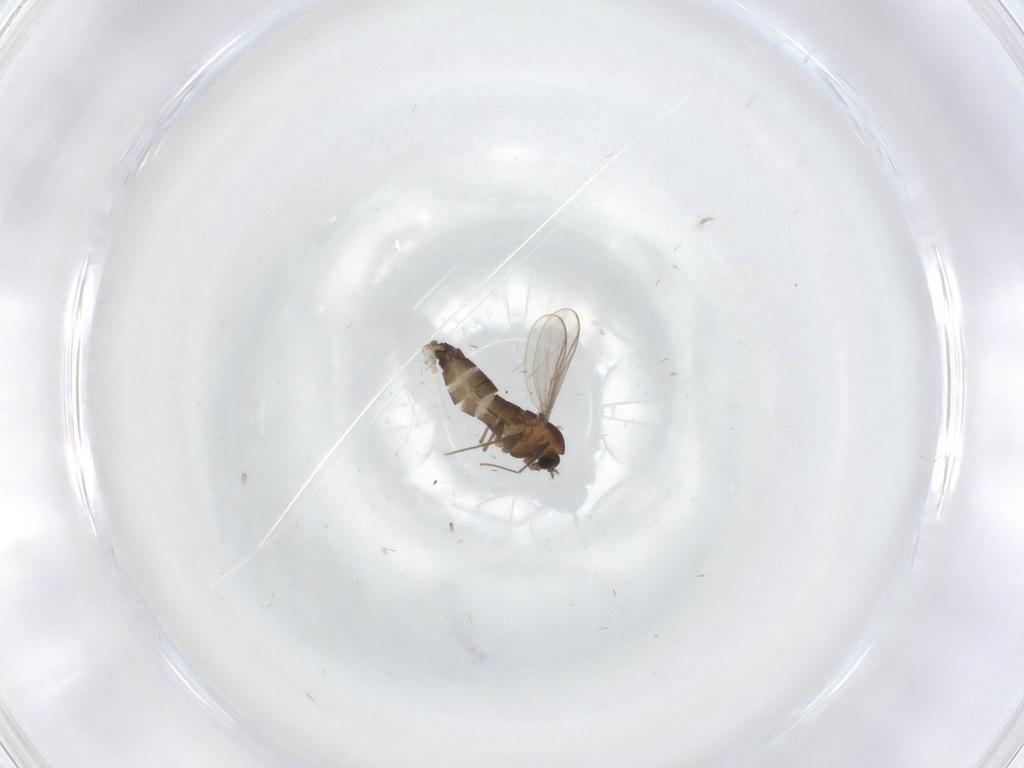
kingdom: Animalia
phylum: Arthropoda
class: Insecta
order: Diptera
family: Chironomidae
